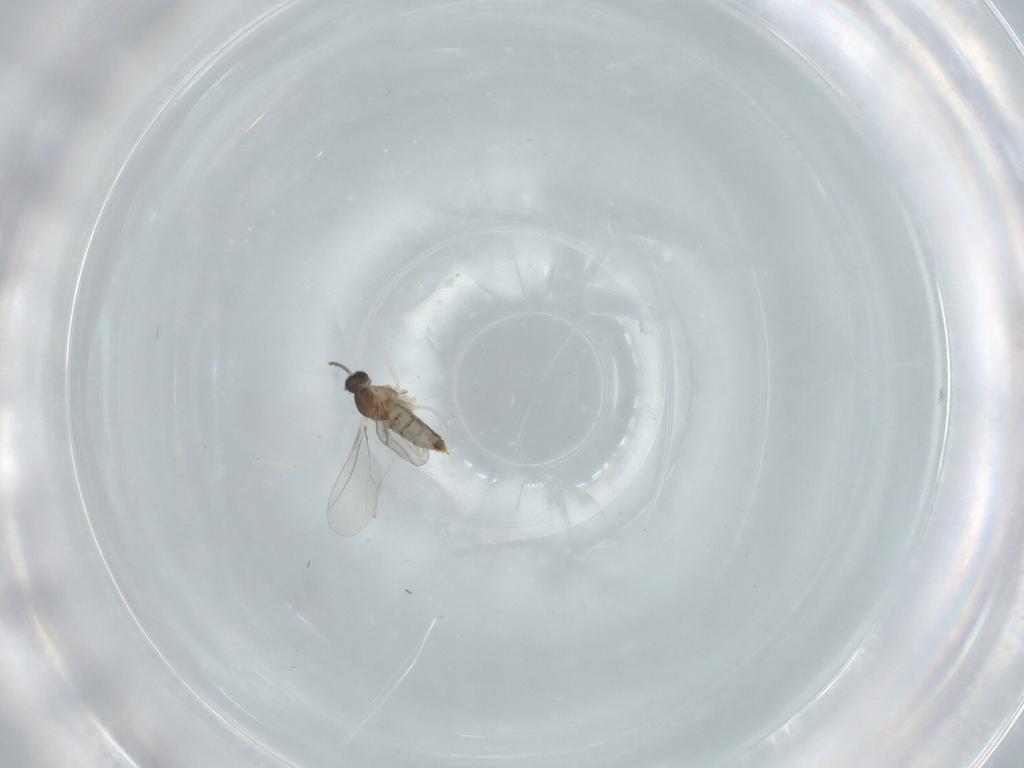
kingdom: Animalia
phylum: Arthropoda
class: Insecta
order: Diptera
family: Cecidomyiidae
